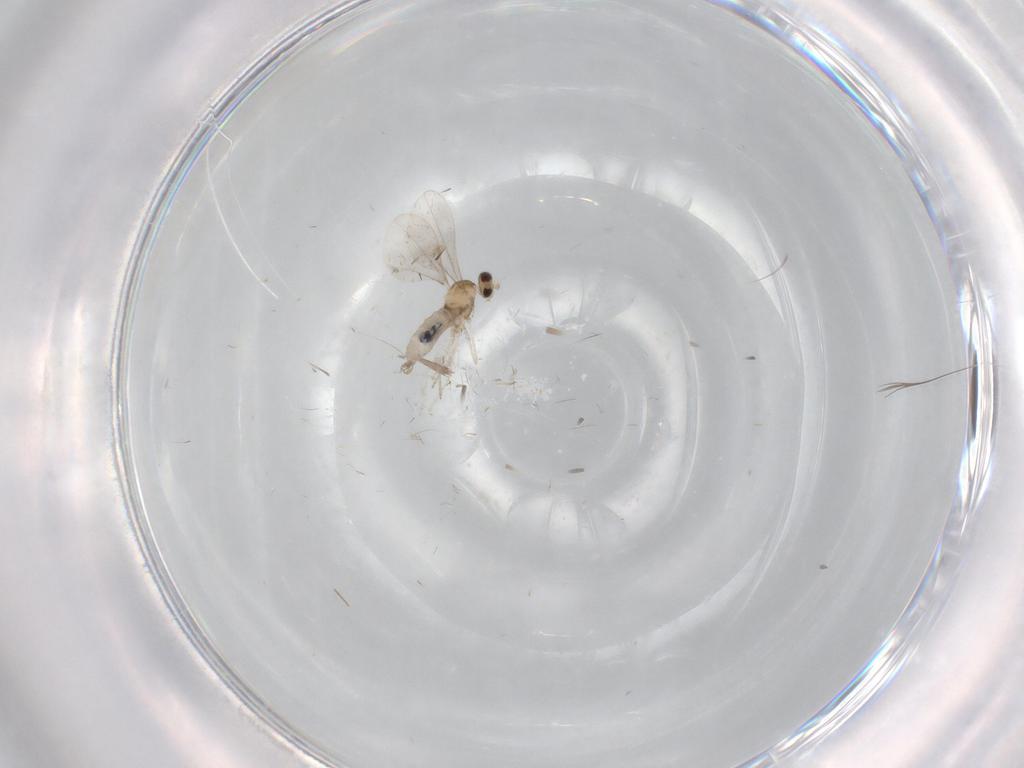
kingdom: Animalia
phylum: Arthropoda
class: Insecta
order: Diptera
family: Cecidomyiidae
